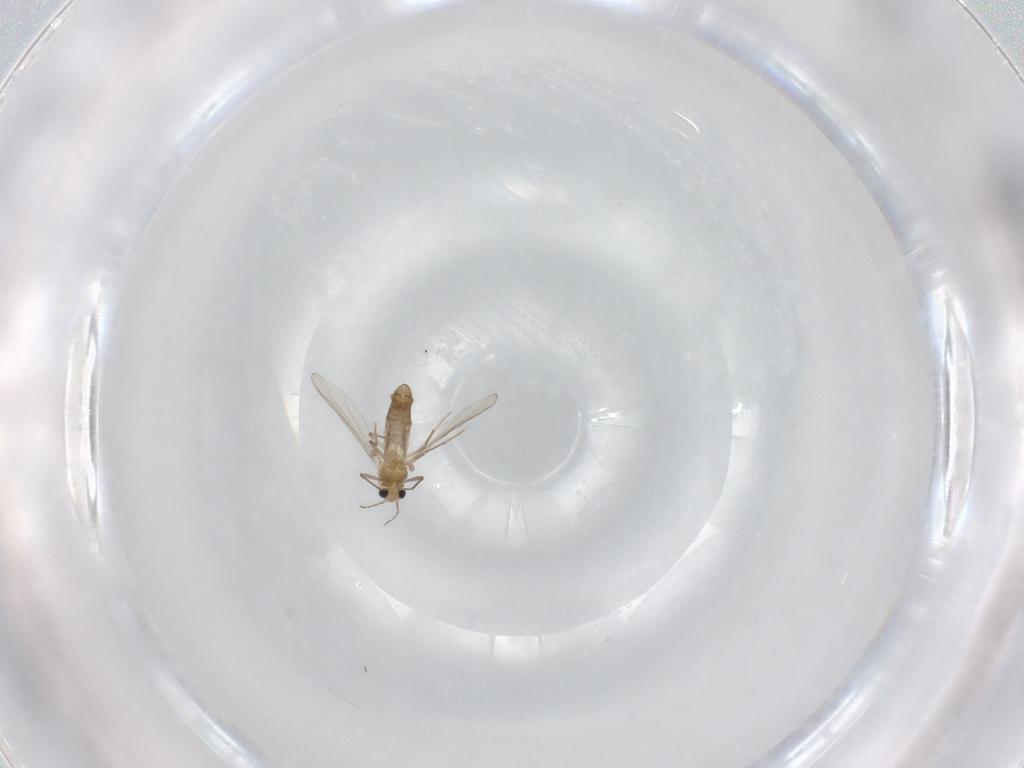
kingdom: Animalia
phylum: Arthropoda
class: Insecta
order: Diptera
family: Chironomidae
